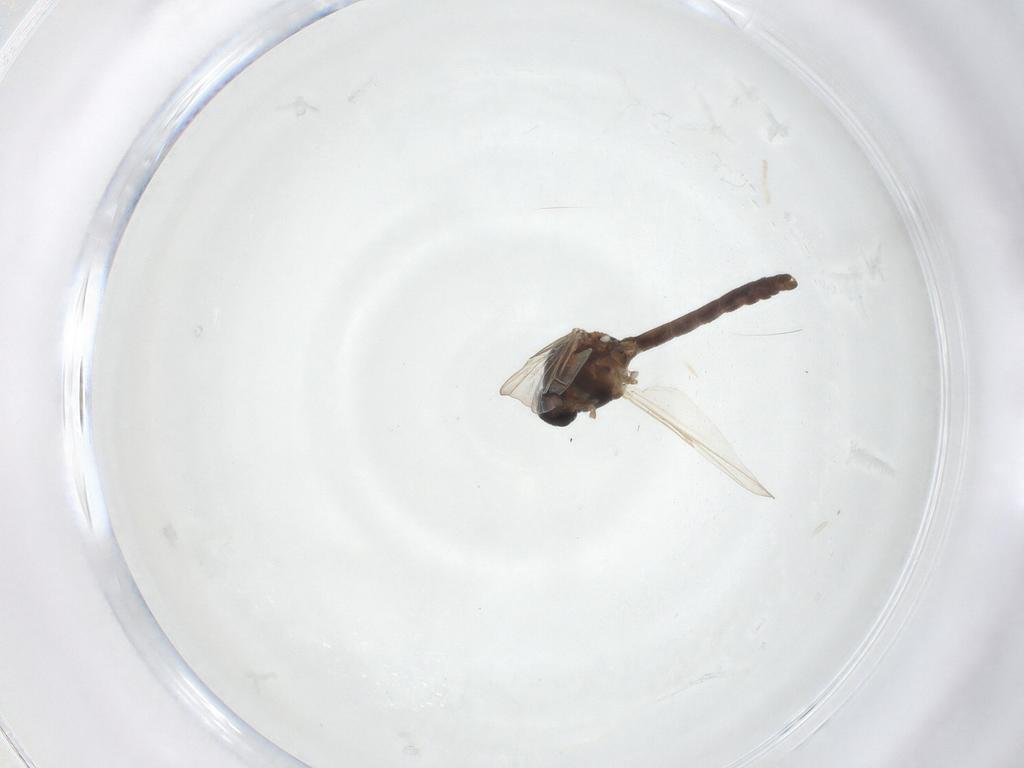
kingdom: Animalia
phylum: Arthropoda
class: Insecta
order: Diptera
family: Ceratopogonidae
